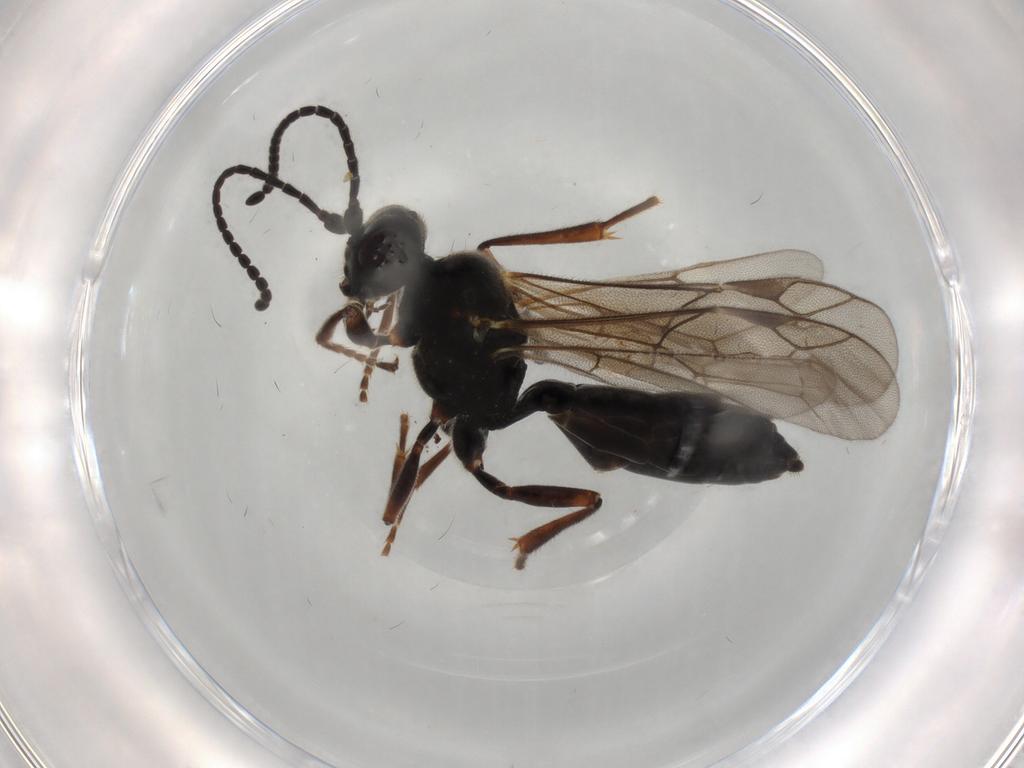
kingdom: Animalia
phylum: Arthropoda
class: Insecta
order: Hymenoptera
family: Ichneumonidae
